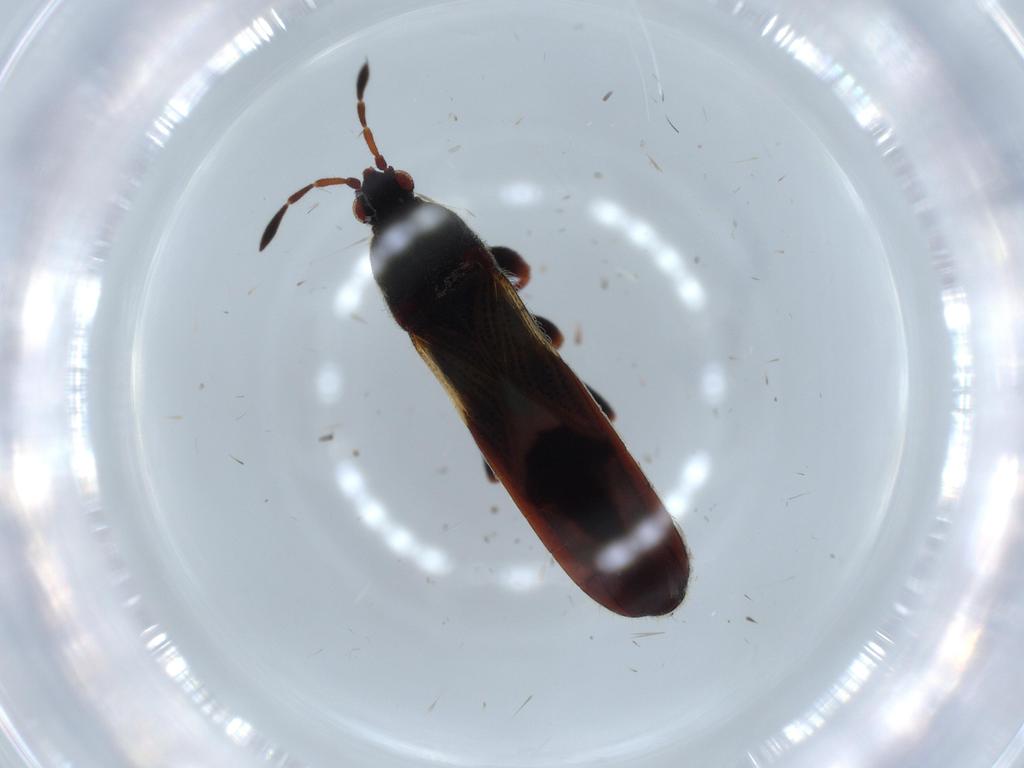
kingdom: Animalia
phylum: Arthropoda
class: Insecta
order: Hemiptera
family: Blissidae
